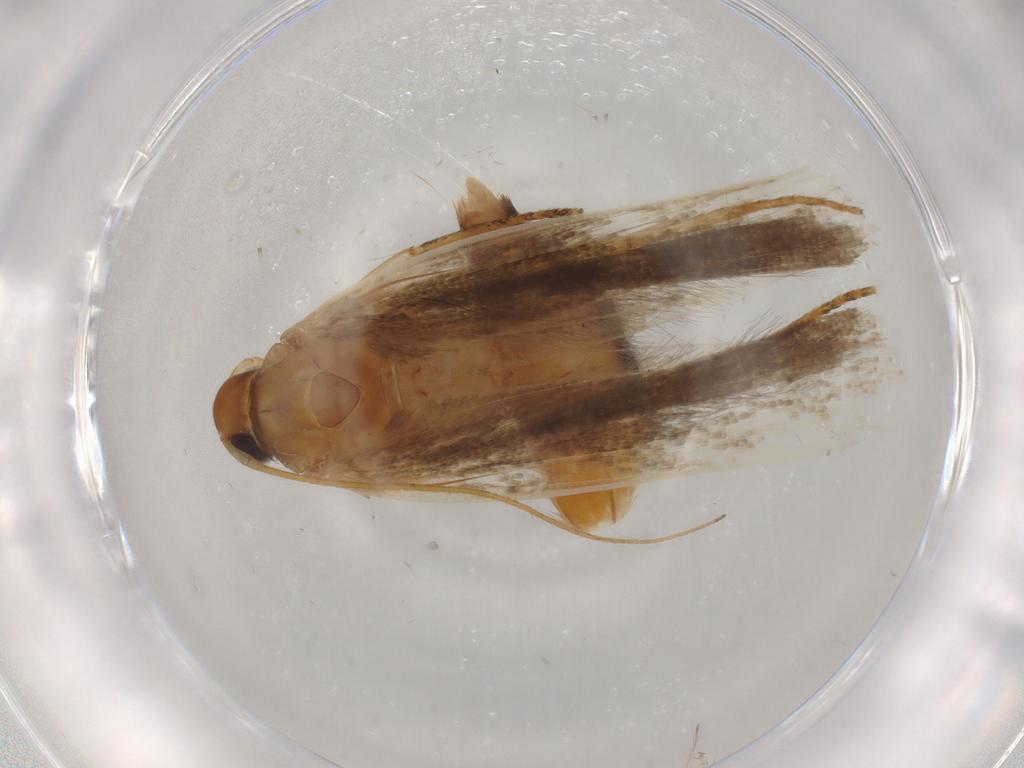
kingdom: Animalia
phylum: Arthropoda
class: Insecta
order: Lepidoptera
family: Gelechiidae
